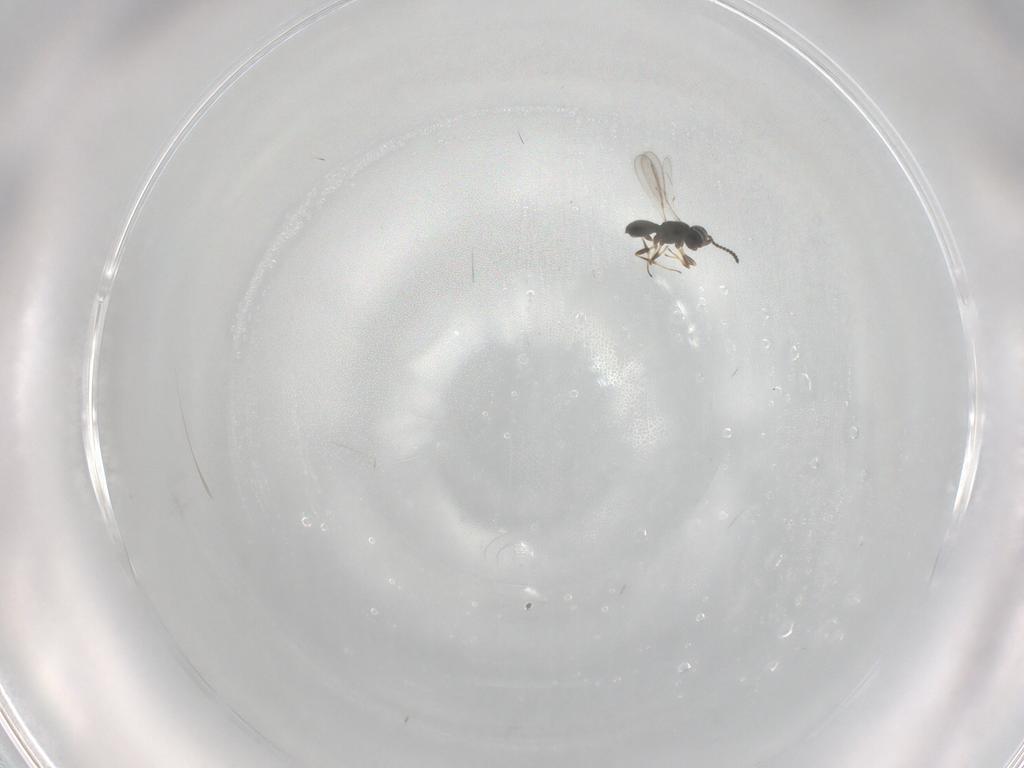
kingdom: Animalia
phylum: Arthropoda
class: Insecta
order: Hymenoptera
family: Scelionidae
